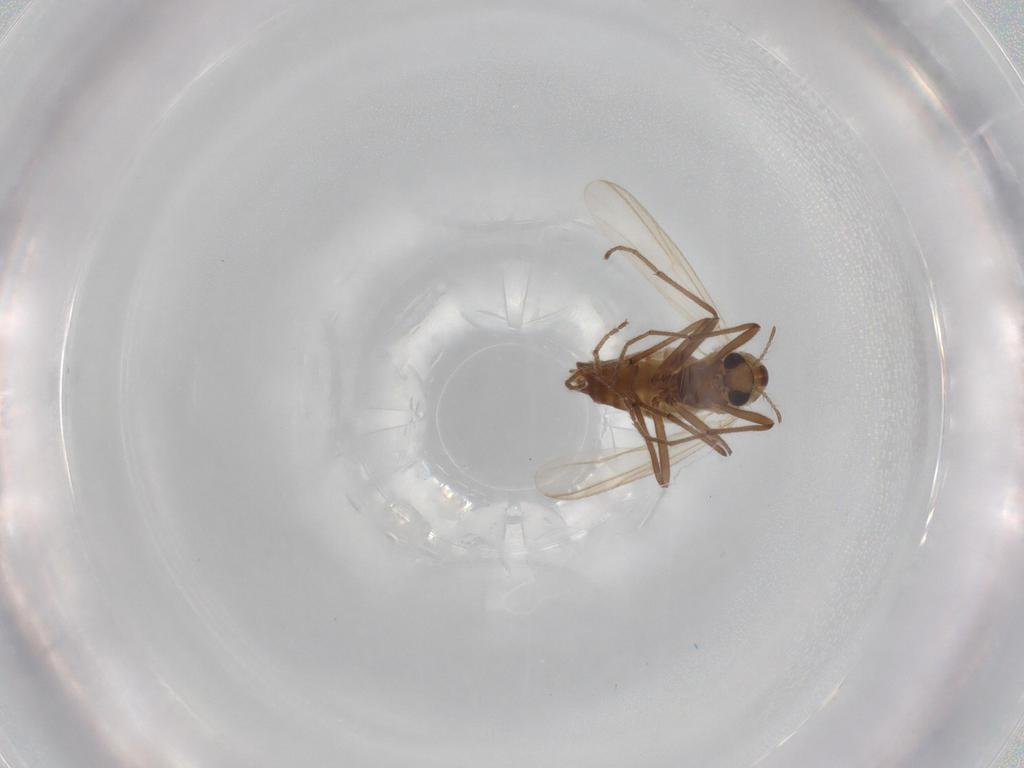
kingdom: Animalia
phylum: Arthropoda
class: Insecta
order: Diptera
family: Chironomidae
